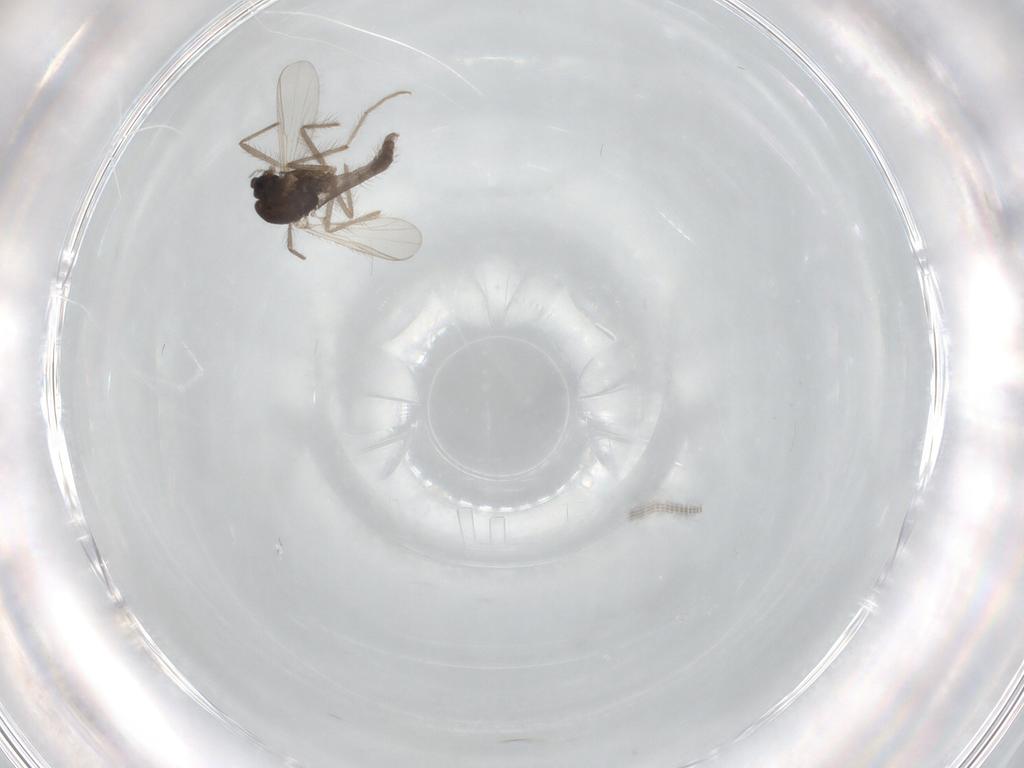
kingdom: Animalia
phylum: Arthropoda
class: Insecta
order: Diptera
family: Chironomidae
